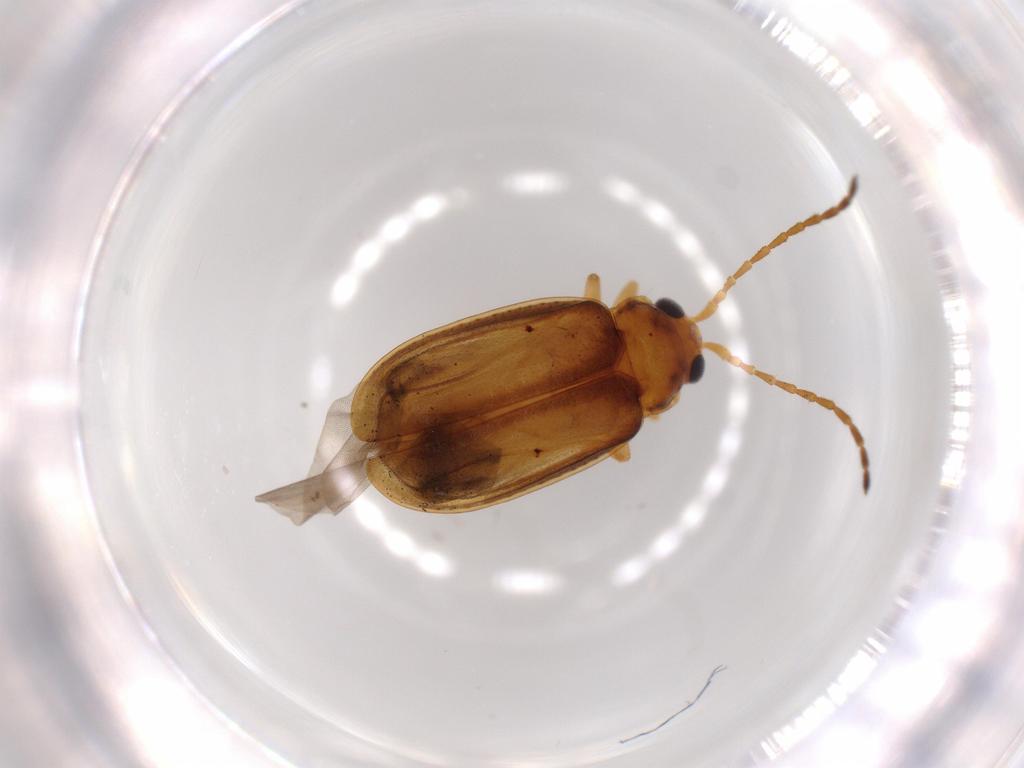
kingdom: Animalia
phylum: Arthropoda
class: Insecta
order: Coleoptera
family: Chrysomelidae
